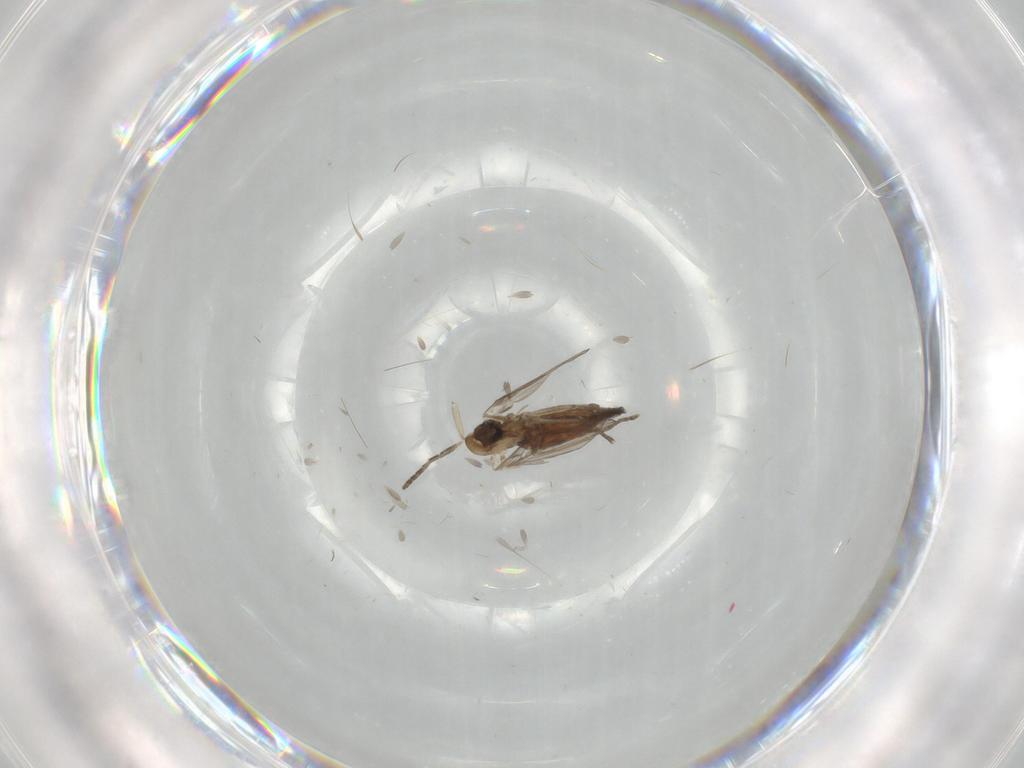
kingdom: Animalia
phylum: Arthropoda
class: Insecta
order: Diptera
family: Psychodidae
